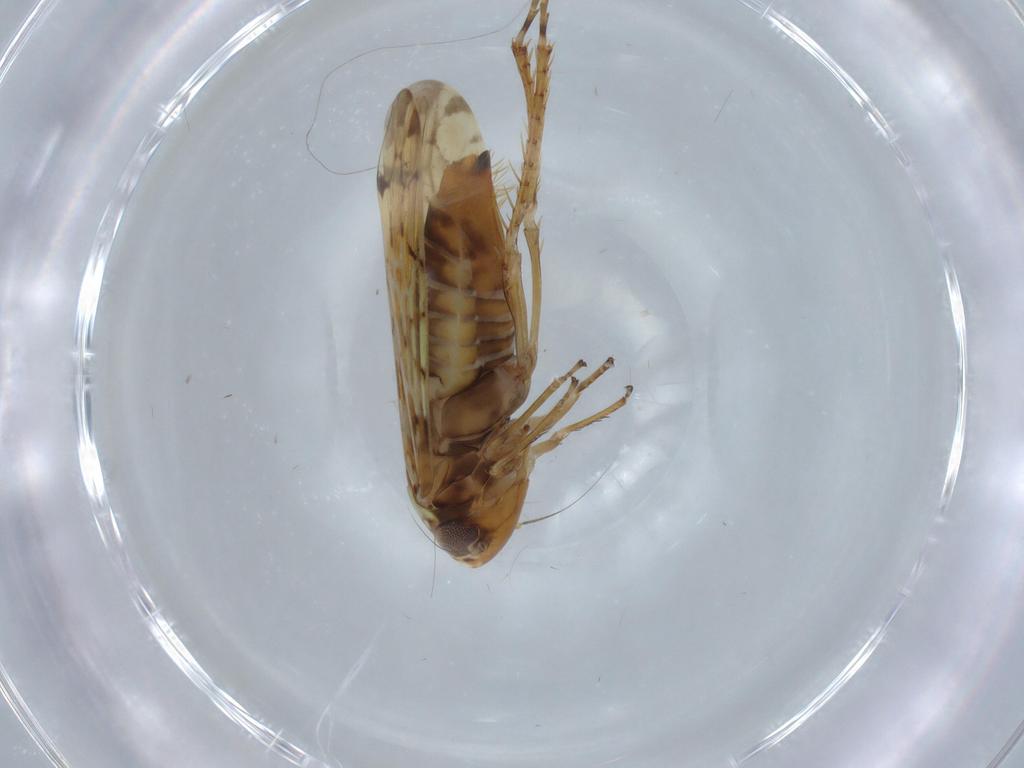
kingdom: Animalia
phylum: Arthropoda
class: Insecta
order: Hemiptera
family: Cicadellidae
